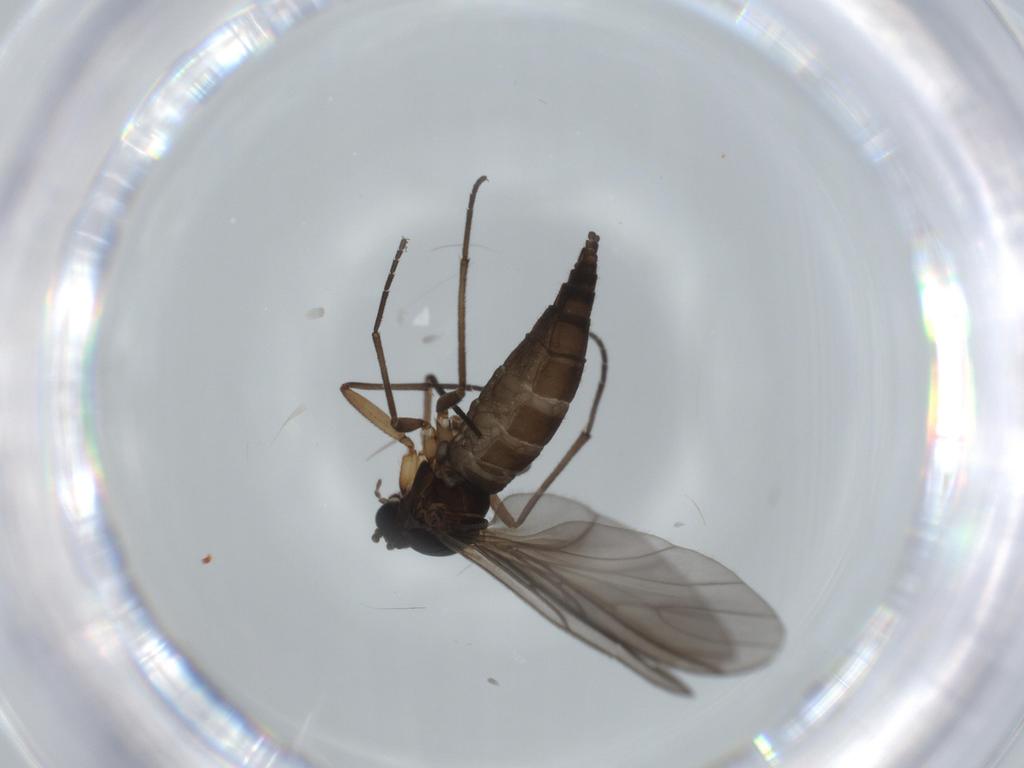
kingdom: Animalia
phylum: Arthropoda
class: Insecta
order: Diptera
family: Sciaridae
